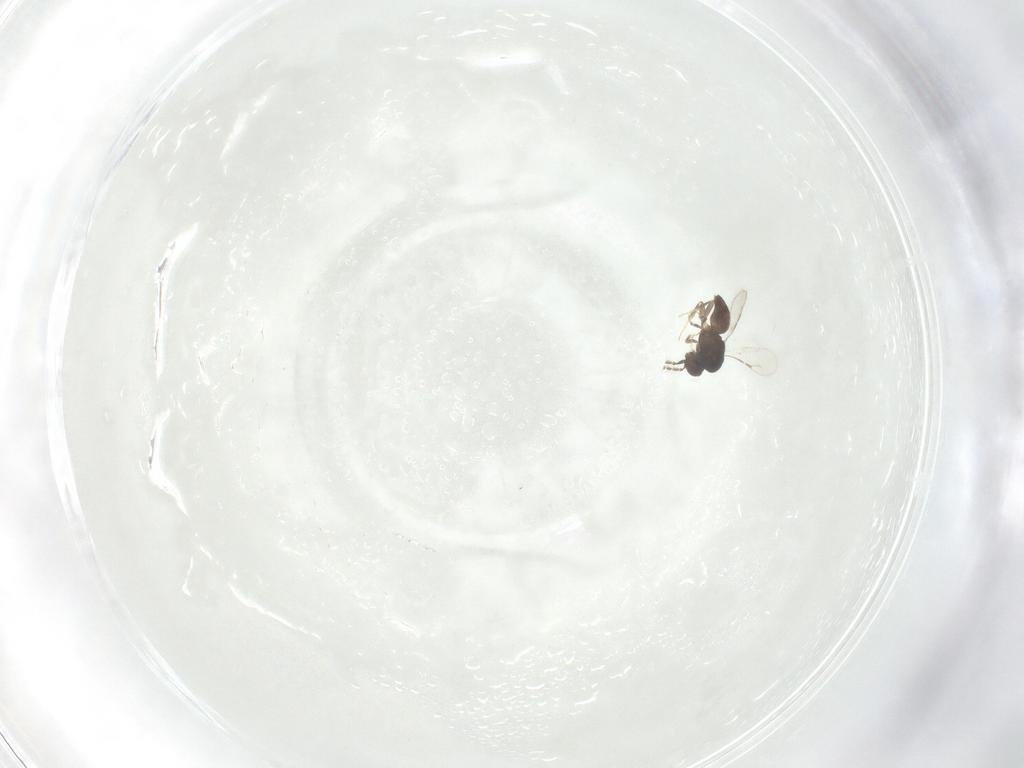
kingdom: Animalia
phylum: Arthropoda
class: Insecta
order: Hymenoptera
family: Ceraphronidae
